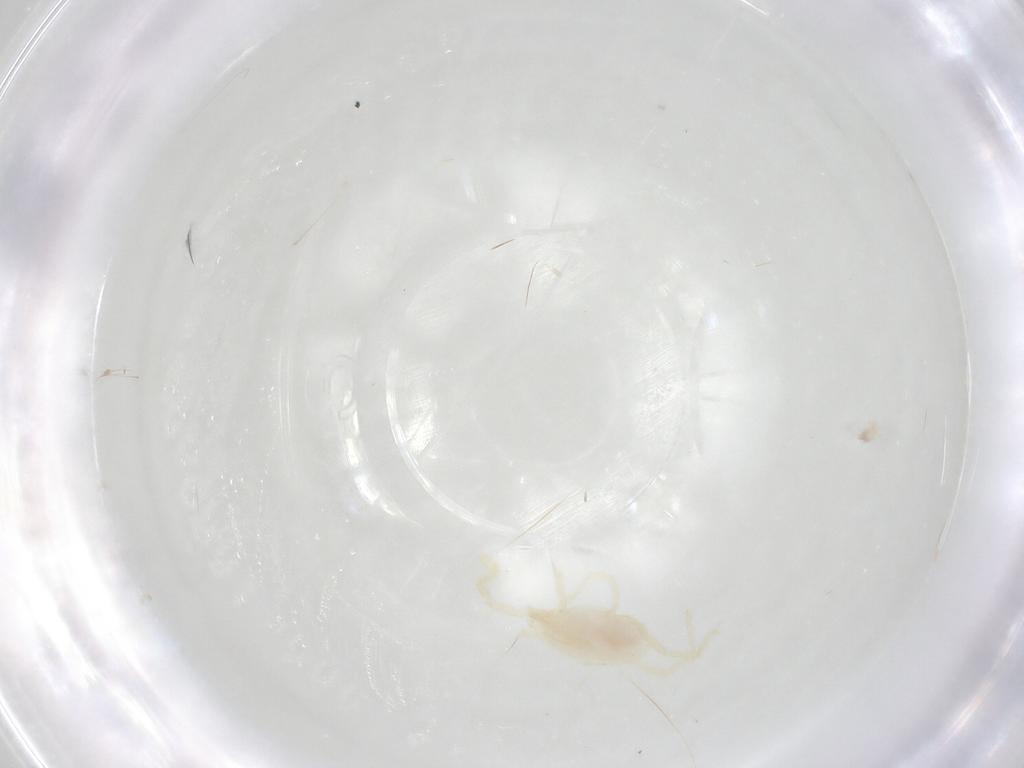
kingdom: Animalia
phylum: Arthropoda
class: Arachnida
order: Trombidiformes
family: Erythraeidae
